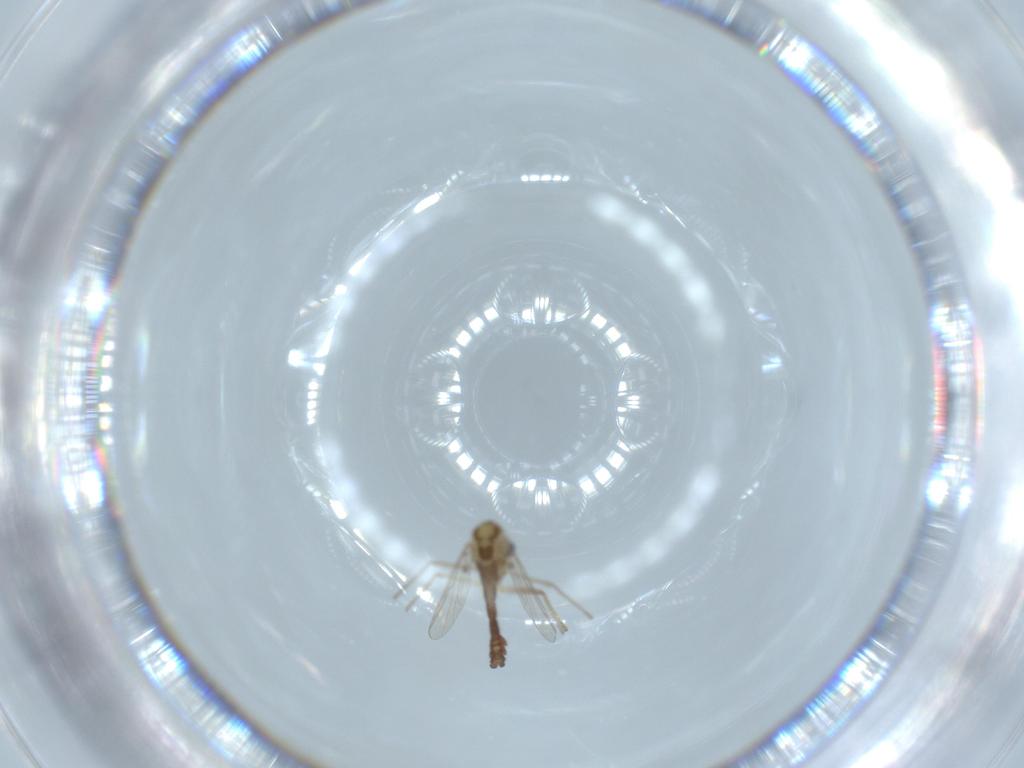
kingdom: Animalia
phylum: Arthropoda
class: Insecta
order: Diptera
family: Chironomidae
